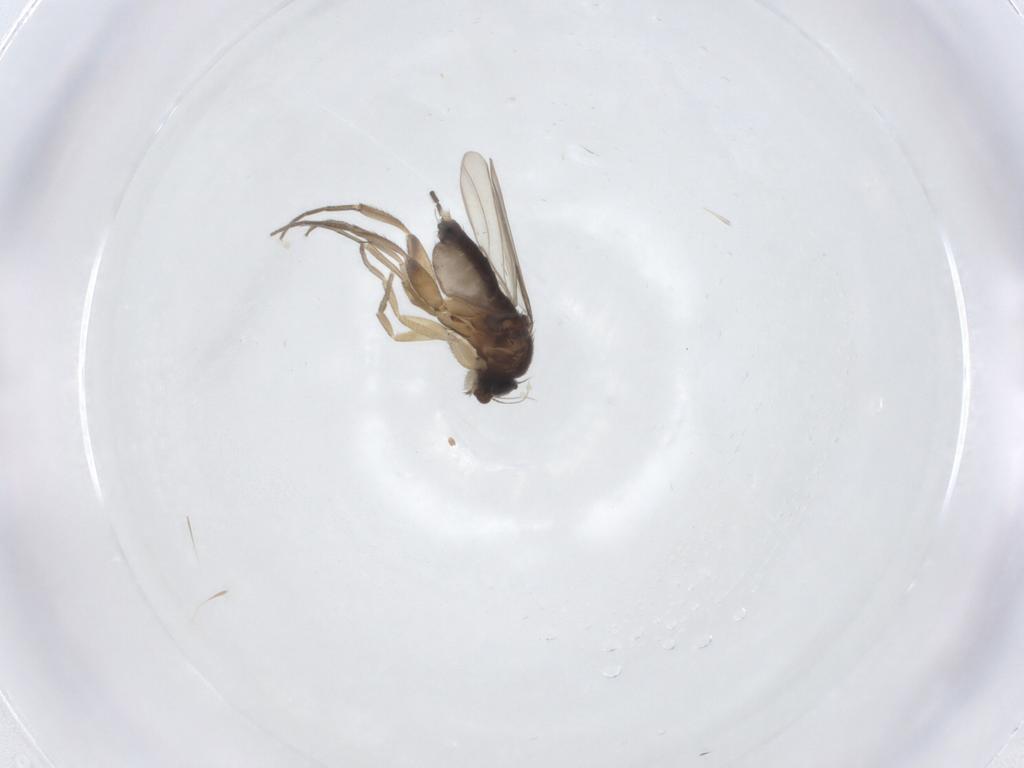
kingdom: Animalia
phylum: Arthropoda
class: Insecta
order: Diptera
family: Phoridae
